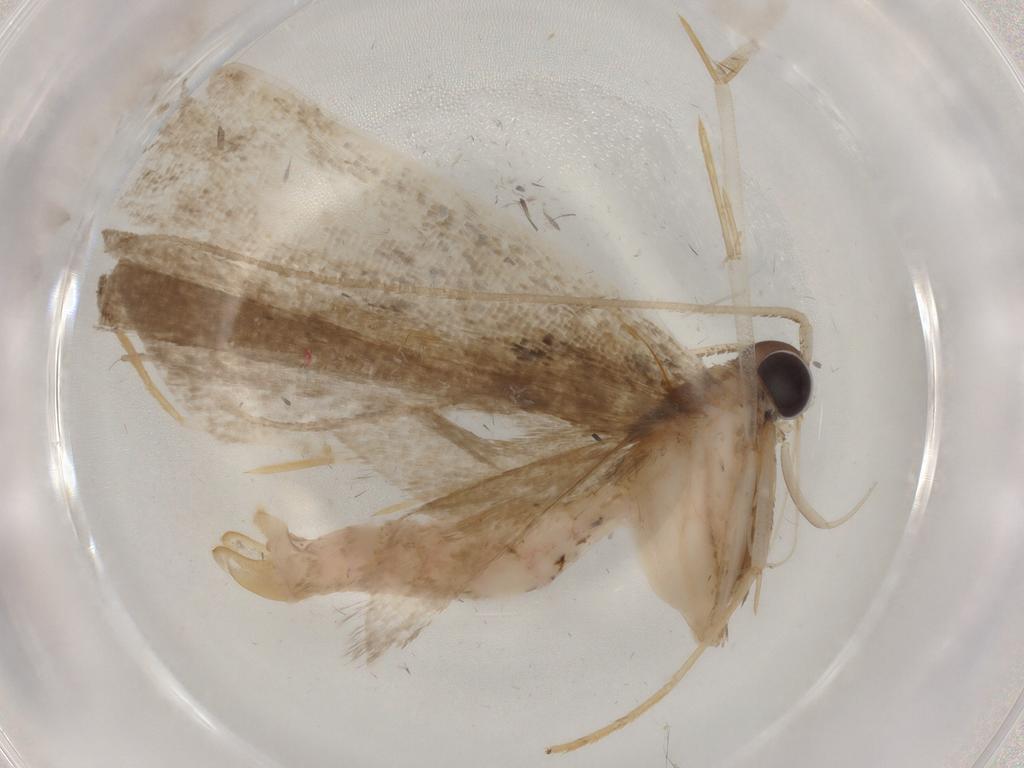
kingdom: Animalia
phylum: Arthropoda
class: Insecta
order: Lepidoptera
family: Cosmopterigidae
